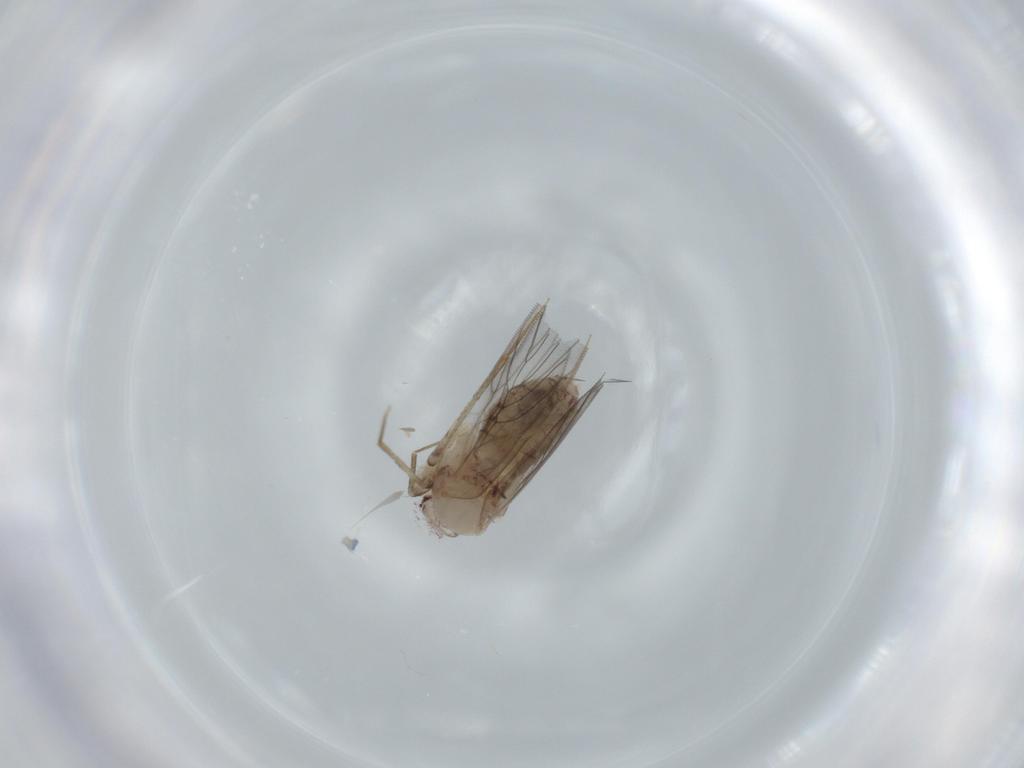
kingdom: Animalia
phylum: Arthropoda
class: Insecta
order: Psocodea
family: Lepidopsocidae
